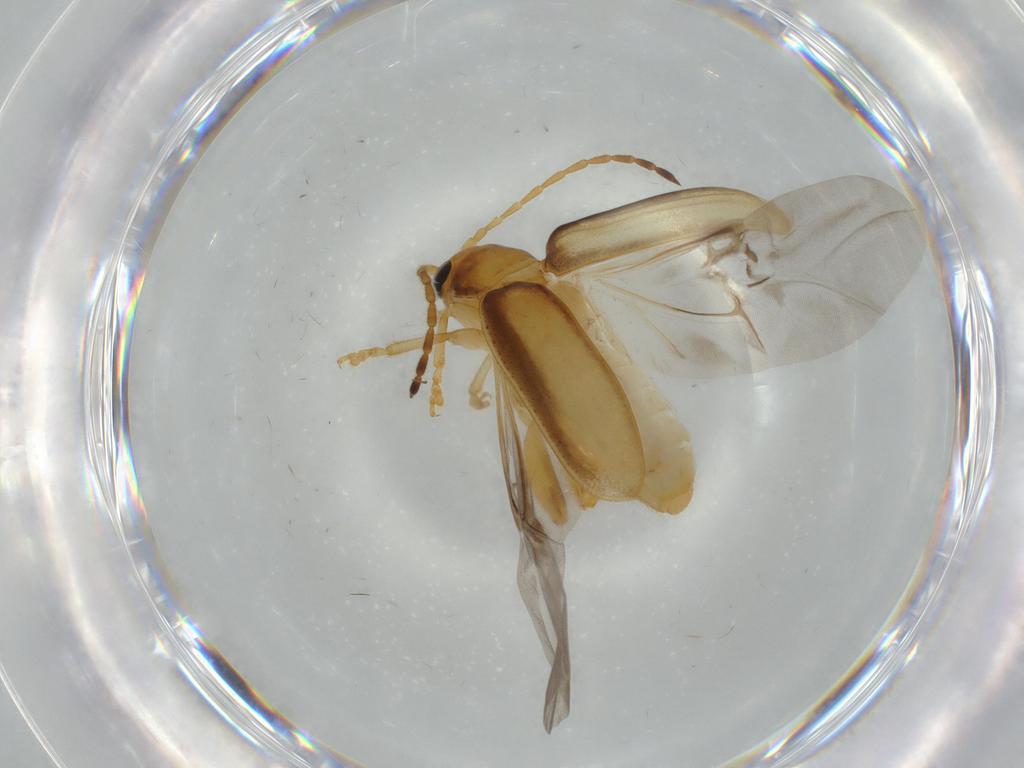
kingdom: Animalia
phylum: Arthropoda
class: Insecta
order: Coleoptera
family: Chrysomelidae
